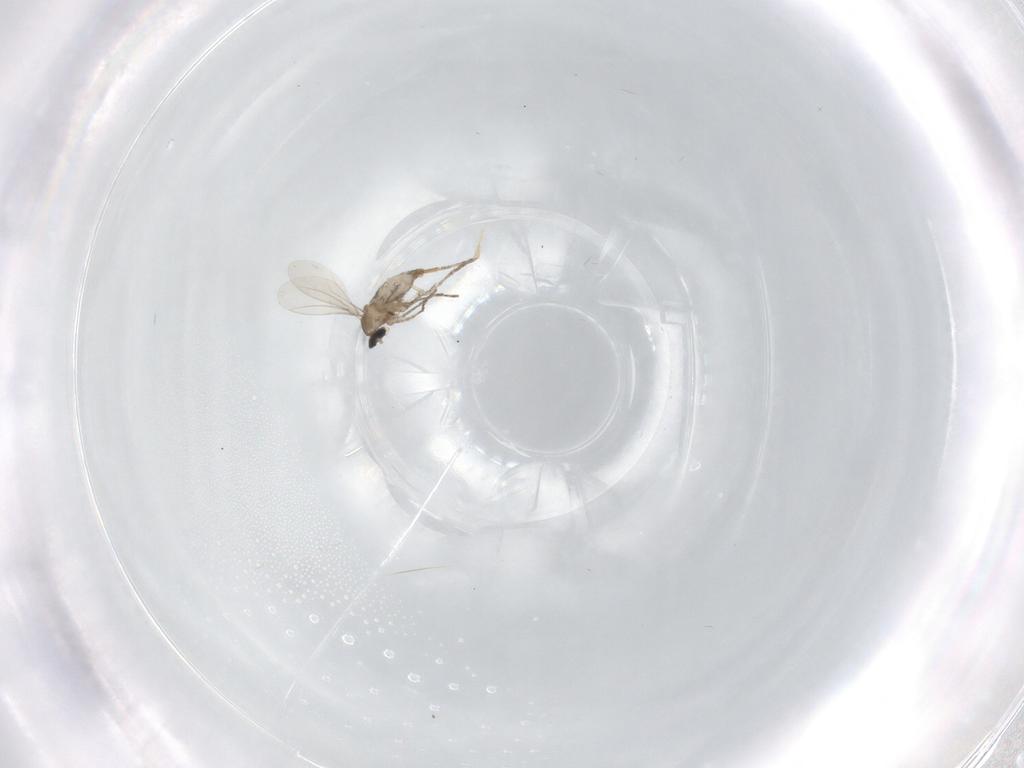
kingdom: Animalia
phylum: Arthropoda
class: Insecta
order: Diptera
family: Cecidomyiidae
